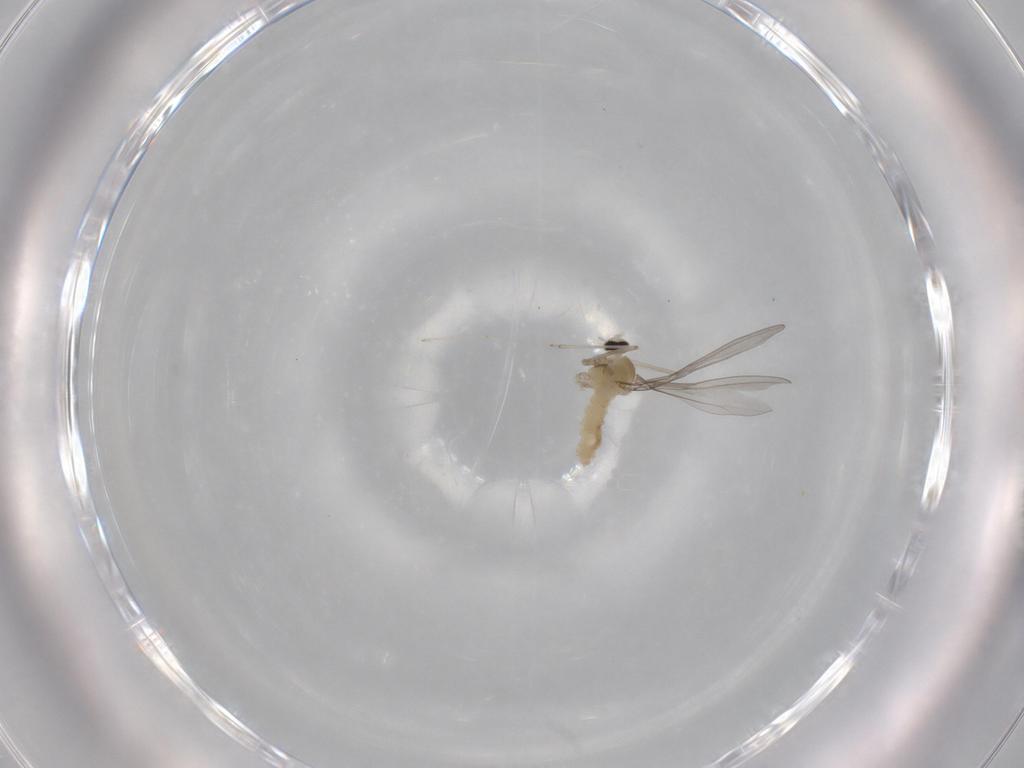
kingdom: Animalia
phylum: Arthropoda
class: Insecta
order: Diptera
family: Cecidomyiidae
